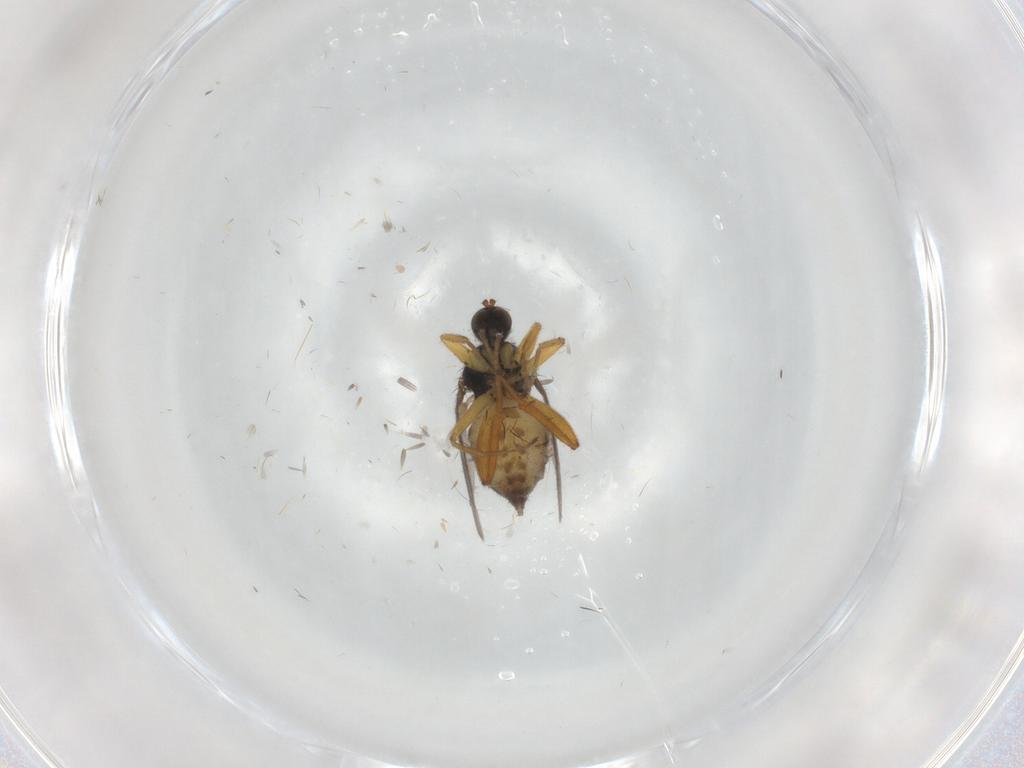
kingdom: Animalia
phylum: Arthropoda
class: Insecta
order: Diptera
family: Hybotidae
